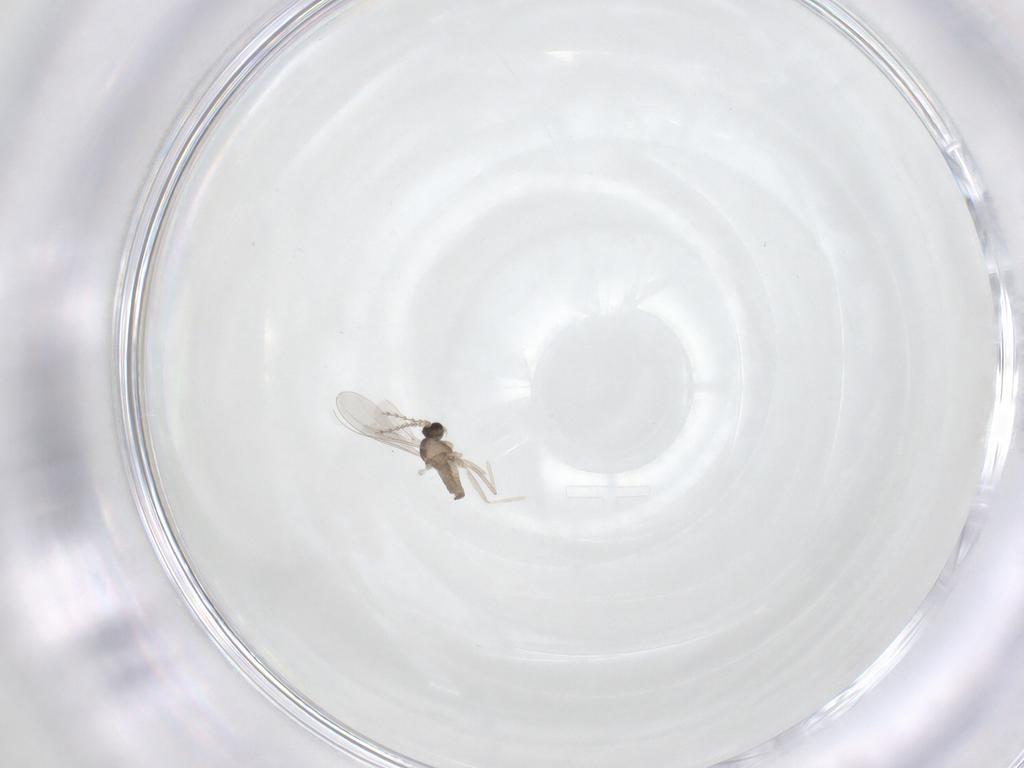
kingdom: Animalia
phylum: Arthropoda
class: Insecta
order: Diptera
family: Cecidomyiidae
